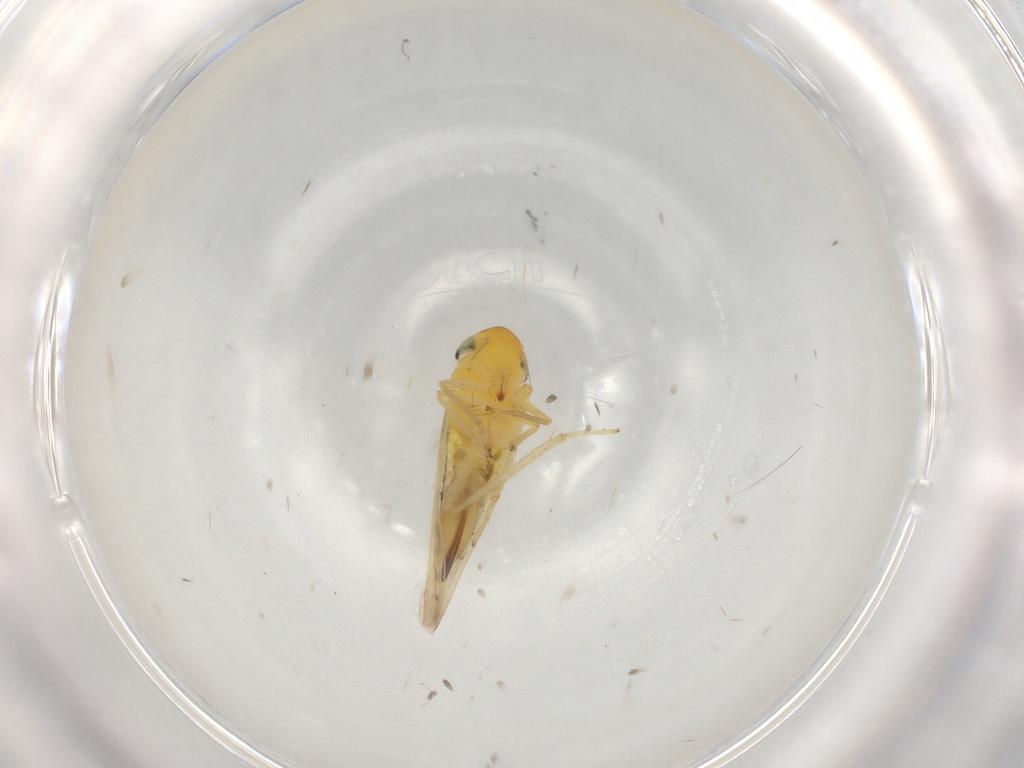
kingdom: Animalia
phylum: Arthropoda
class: Insecta
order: Hemiptera
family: Cicadellidae
